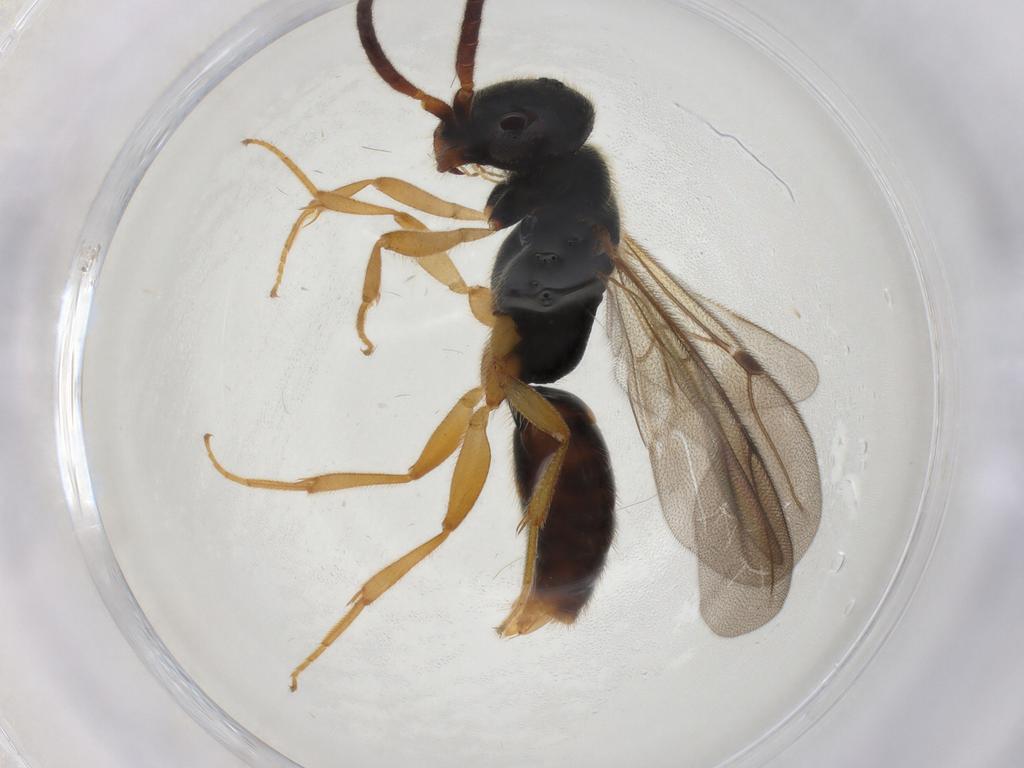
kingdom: Animalia
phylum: Arthropoda
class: Insecta
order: Hymenoptera
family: Bethylidae
